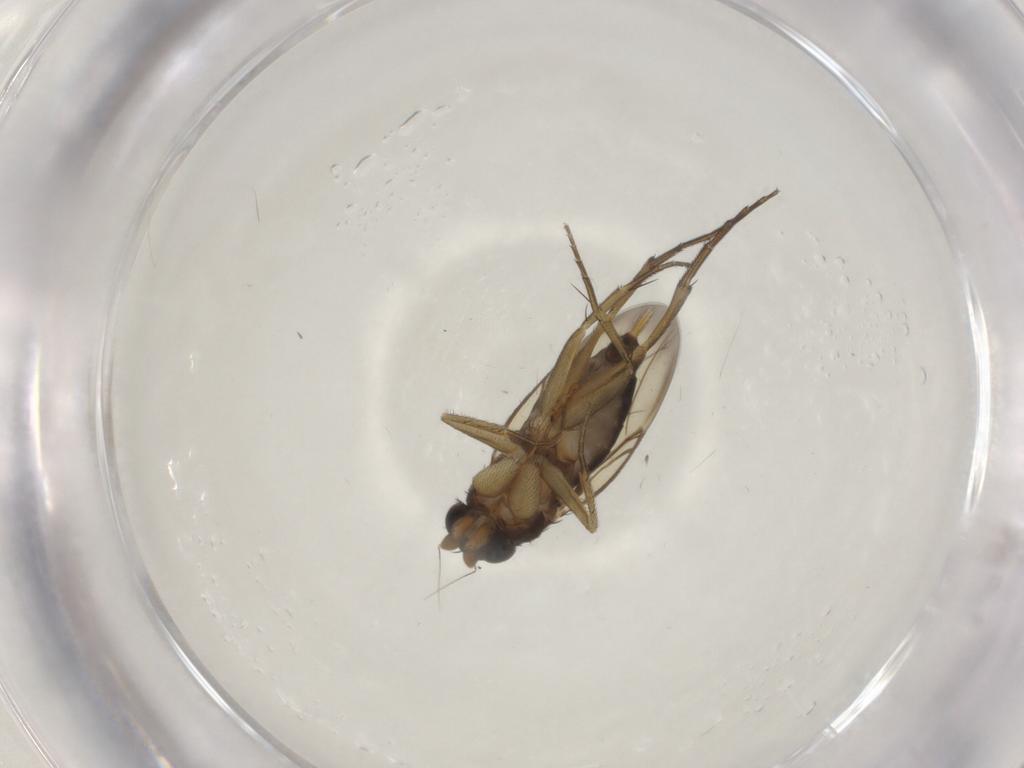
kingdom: Animalia
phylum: Arthropoda
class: Insecta
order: Diptera
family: Phoridae
